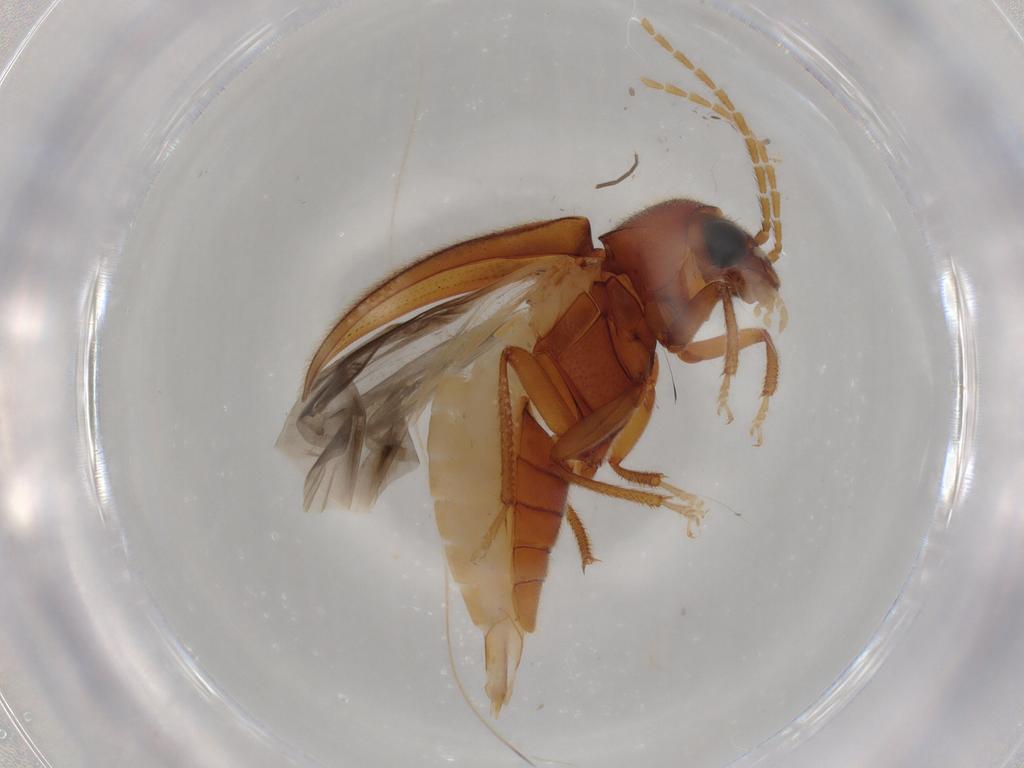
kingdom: Animalia
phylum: Arthropoda
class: Insecta
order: Coleoptera
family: Ptilodactylidae
